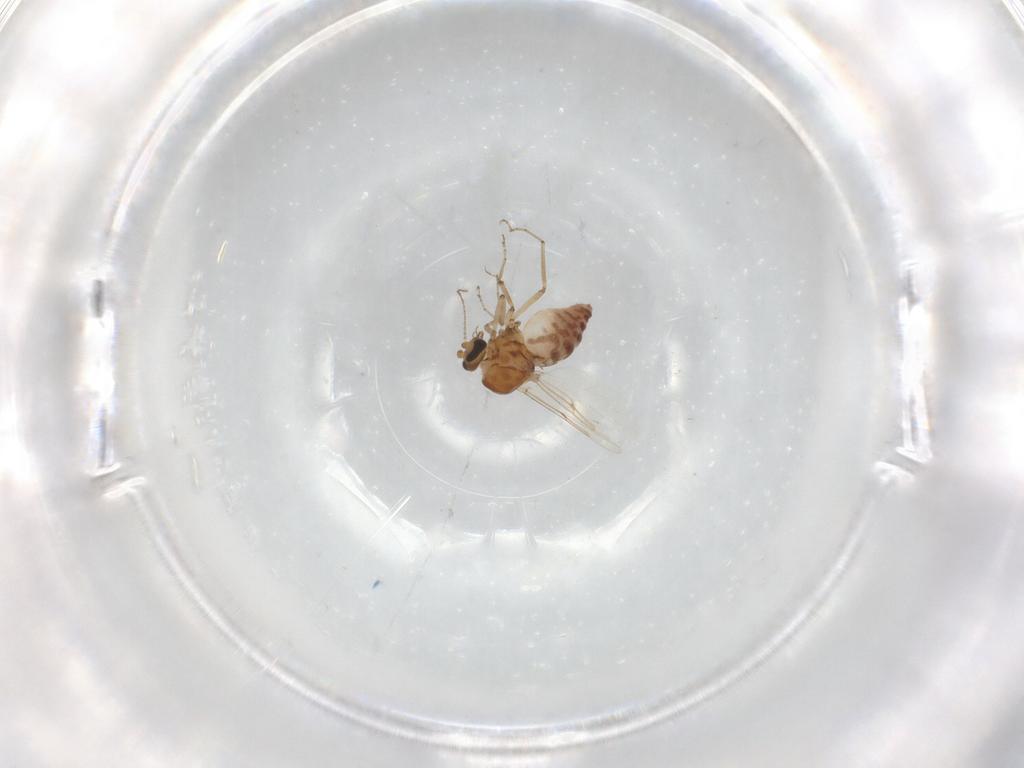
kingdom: Animalia
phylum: Arthropoda
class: Insecta
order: Diptera
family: Ceratopogonidae
